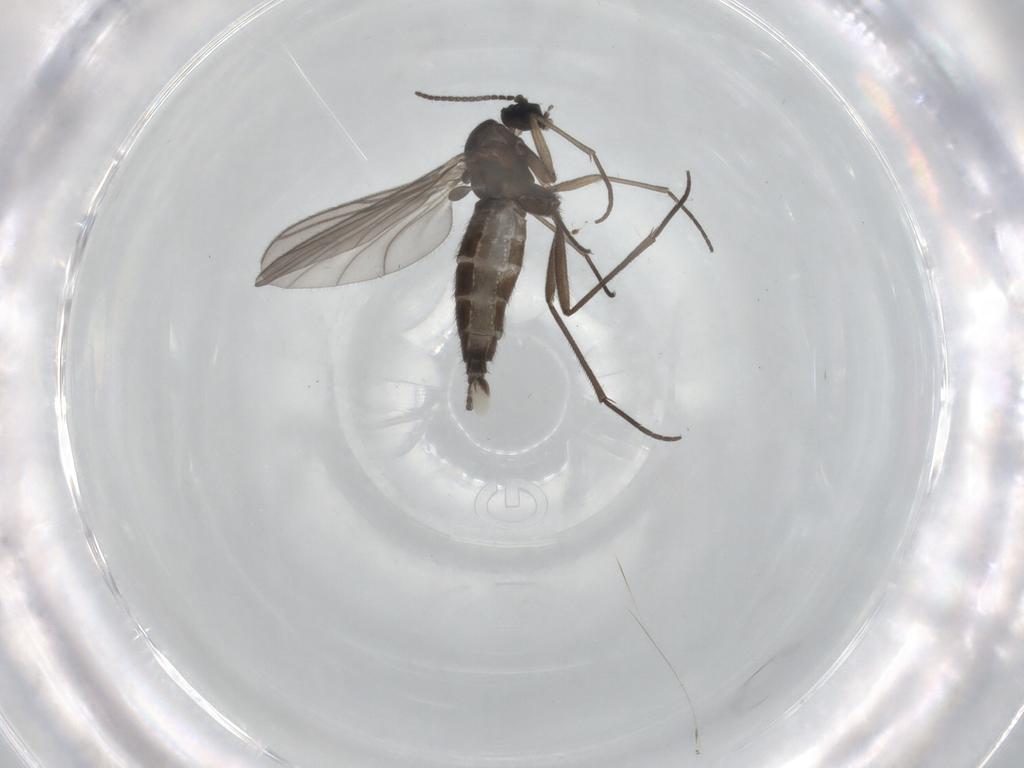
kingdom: Animalia
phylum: Arthropoda
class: Insecta
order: Diptera
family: Sciaridae
